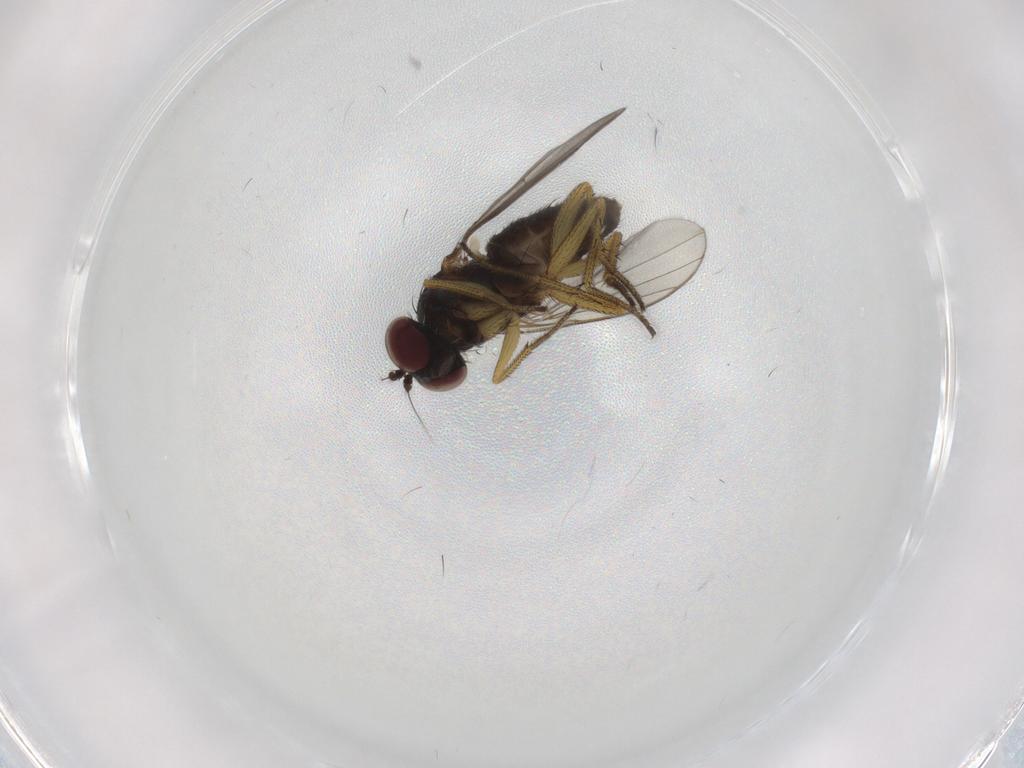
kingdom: Animalia
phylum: Arthropoda
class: Insecta
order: Diptera
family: Dolichopodidae
